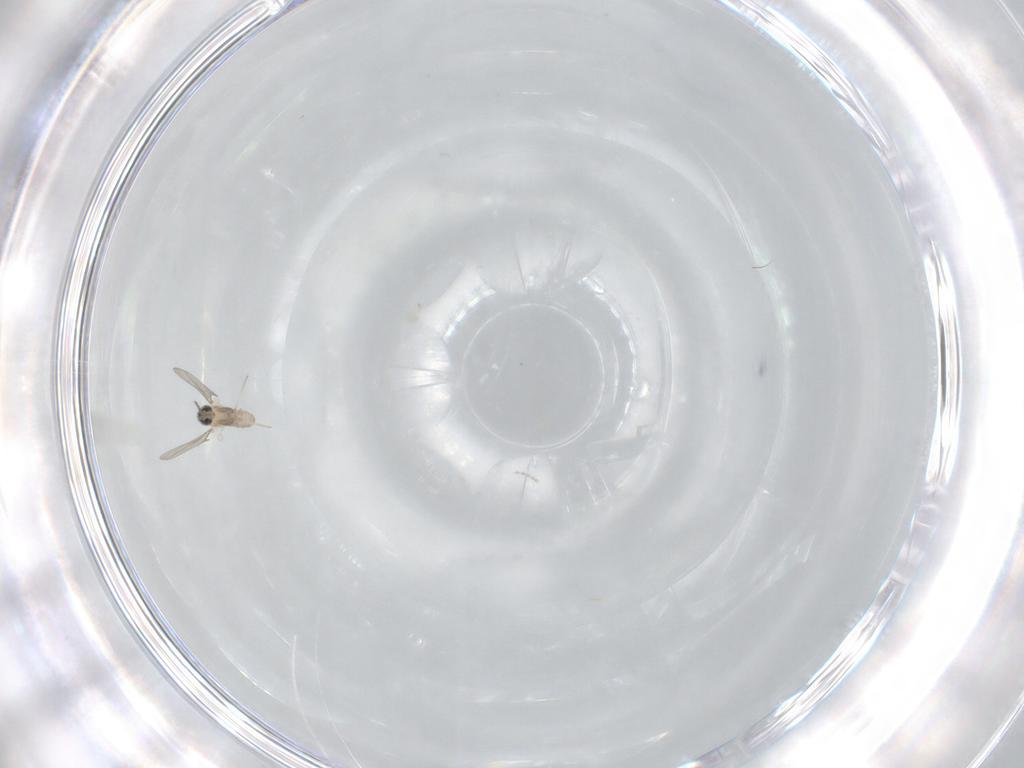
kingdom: Animalia
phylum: Arthropoda
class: Insecta
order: Diptera
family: Cecidomyiidae
